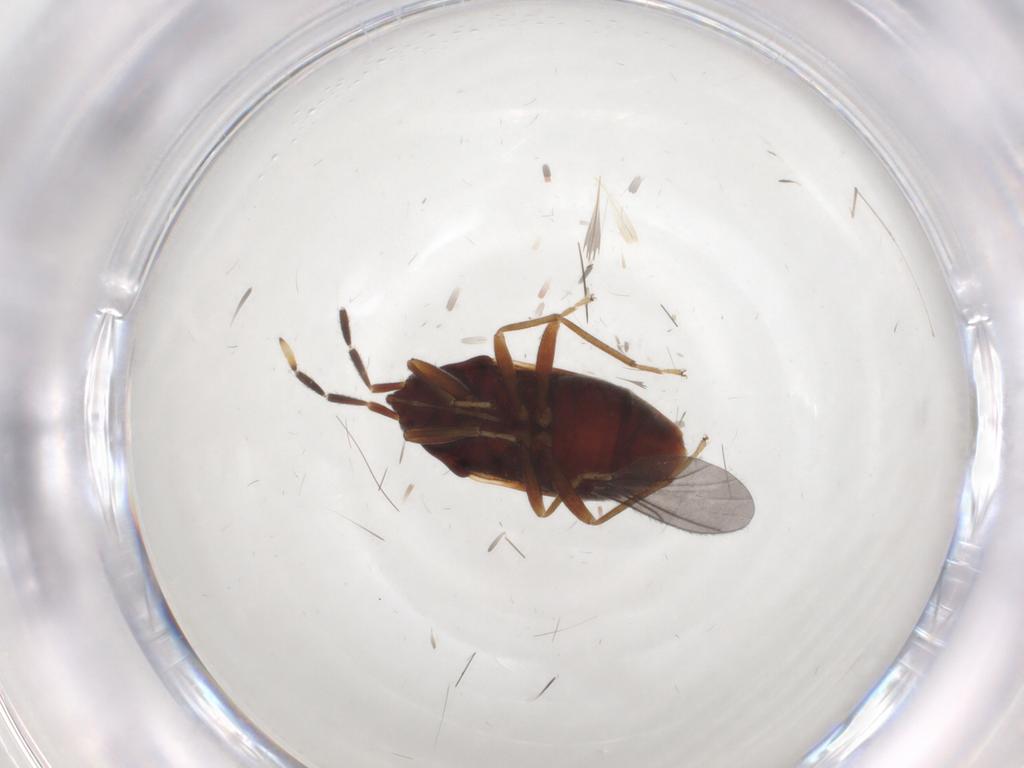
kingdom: Animalia
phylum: Arthropoda
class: Insecta
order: Hemiptera
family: Rhyparochromidae
